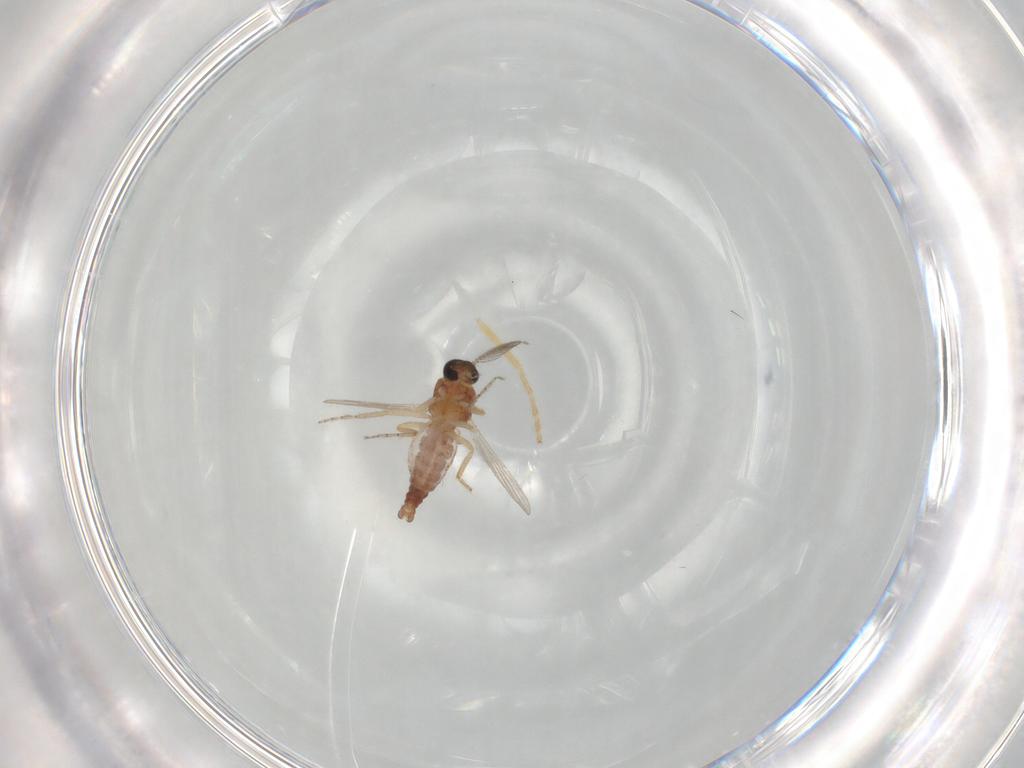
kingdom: Animalia
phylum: Arthropoda
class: Insecta
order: Diptera
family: Ceratopogonidae
